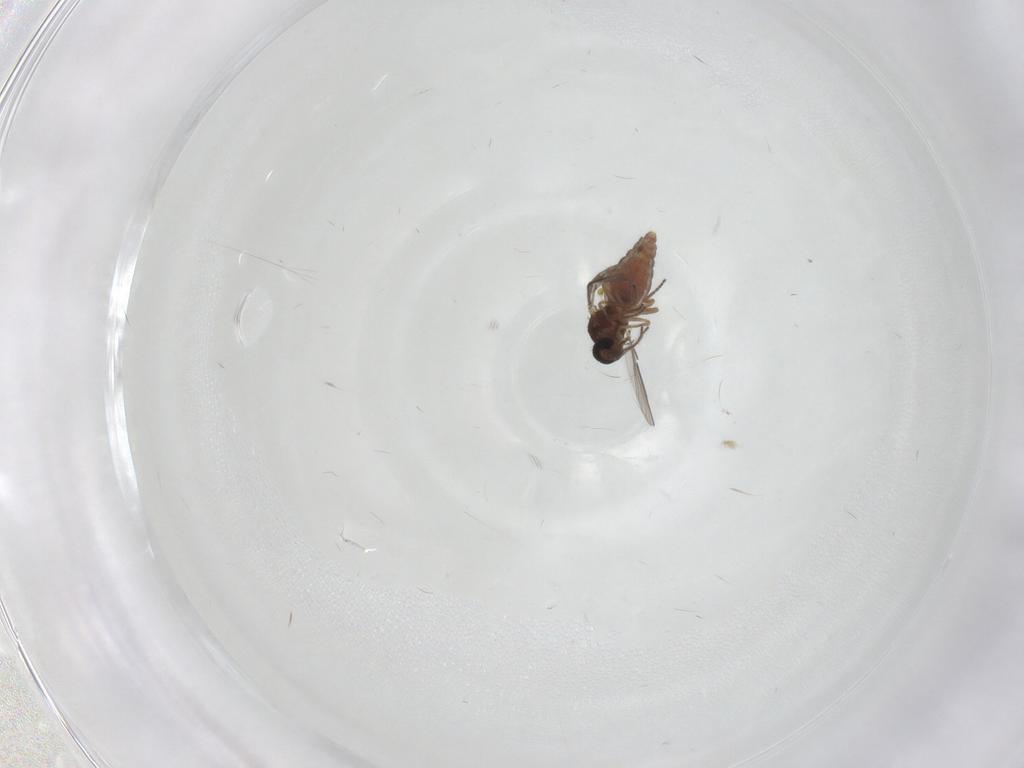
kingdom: Animalia
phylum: Arthropoda
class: Insecta
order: Diptera
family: Ceratopogonidae
